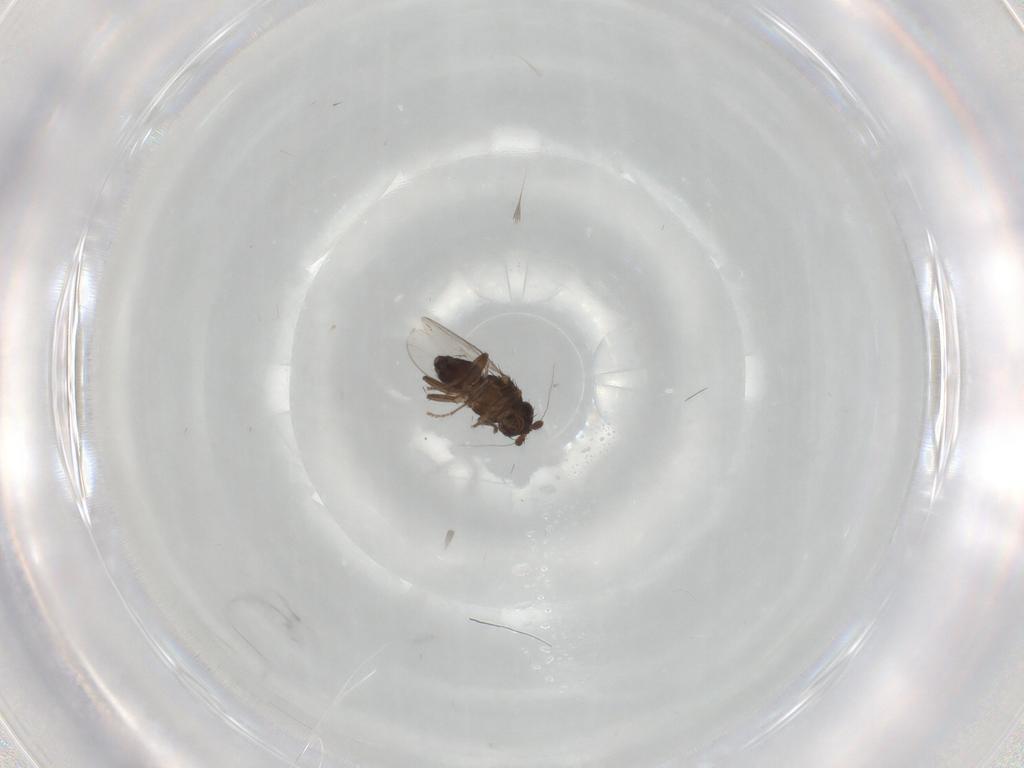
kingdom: Animalia
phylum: Arthropoda
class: Insecta
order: Diptera
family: Sphaeroceridae
